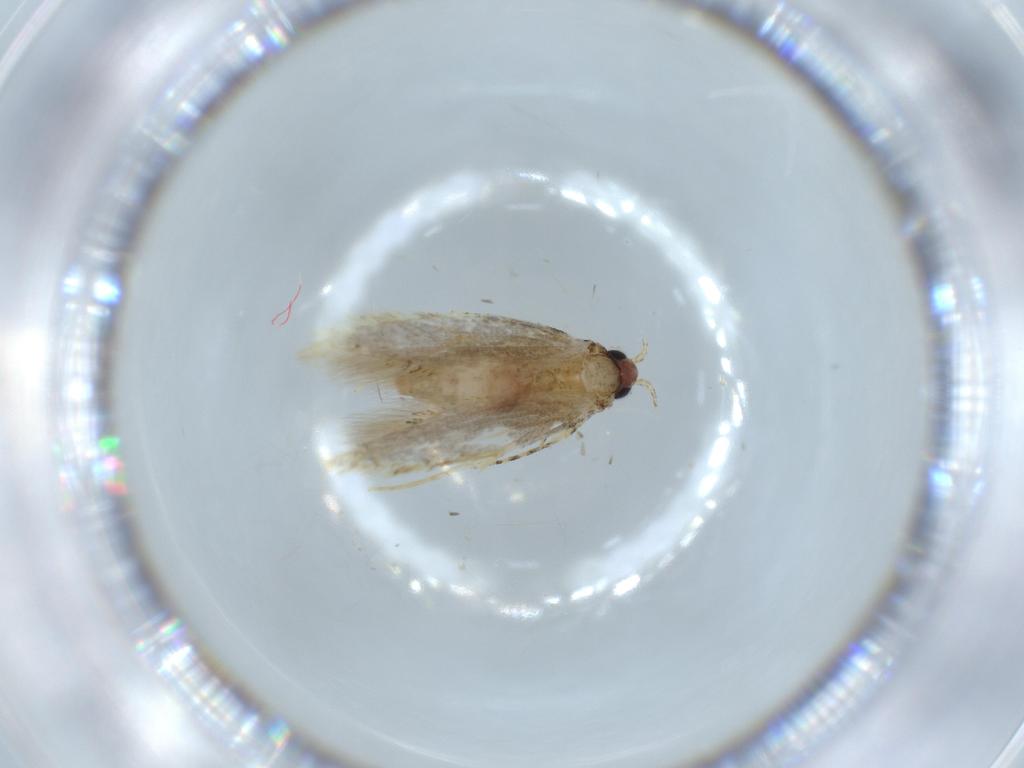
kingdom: Animalia
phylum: Arthropoda
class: Insecta
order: Lepidoptera
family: Tineidae
